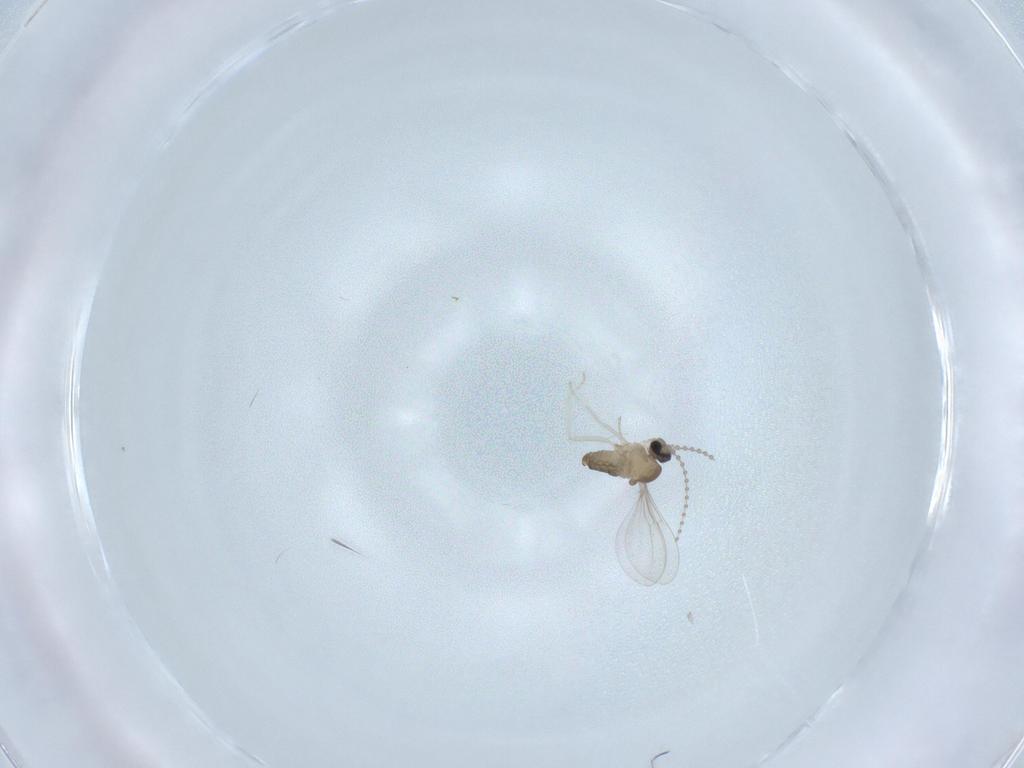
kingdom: Animalia
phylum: Arthropoda
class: Insecta
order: Diptera
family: Cecidomyiidae
